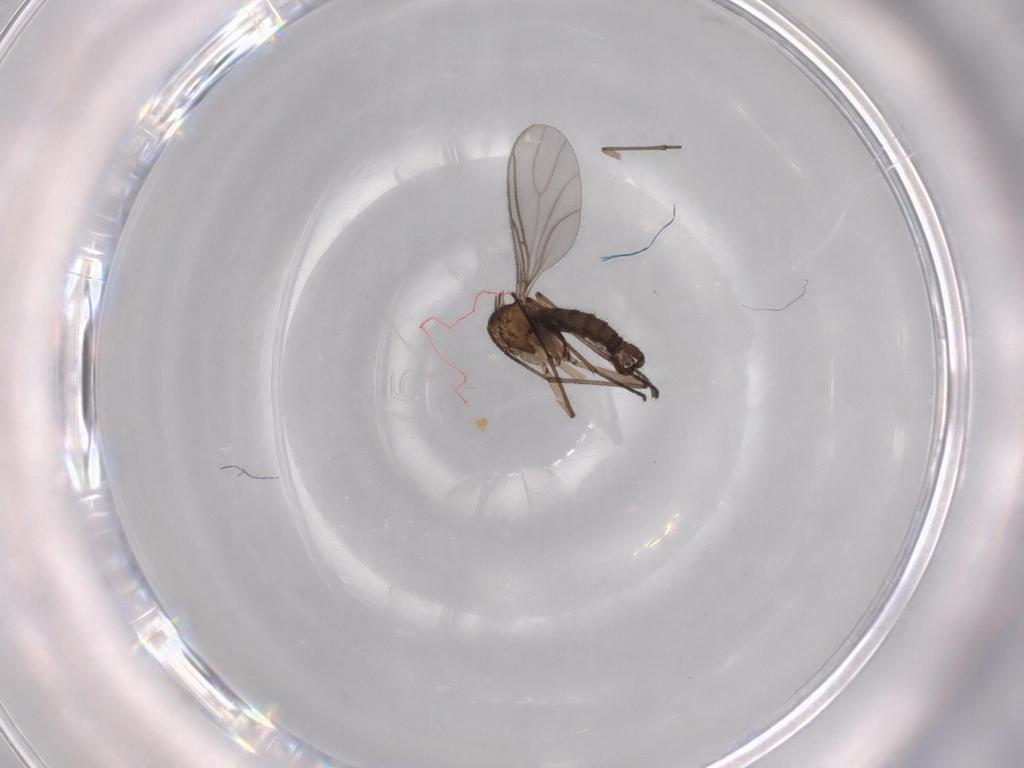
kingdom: Animalia
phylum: Arthropoda
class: Insecta
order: Diptera
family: Sciaridae
